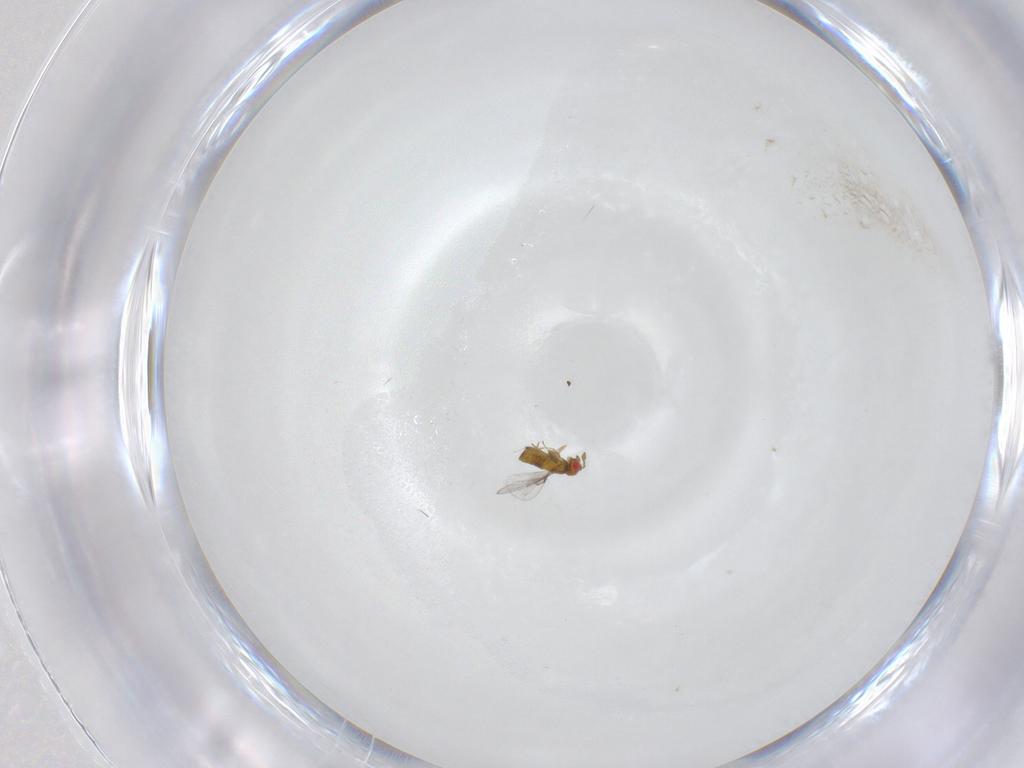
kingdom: Animalia
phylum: Arthropoda
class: Insecta
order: Hymenoptera
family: Trichogrammatidae
